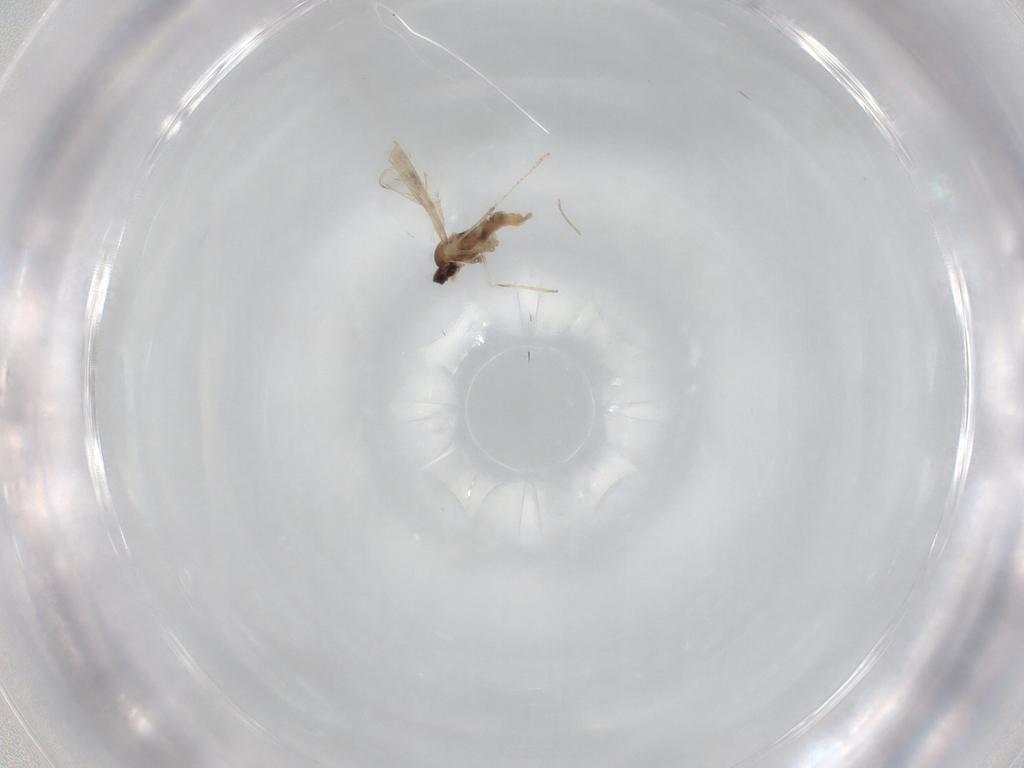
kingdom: Animalia
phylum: Arthropoda
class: Insecta
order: Diptera
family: Cecidomyiidae
